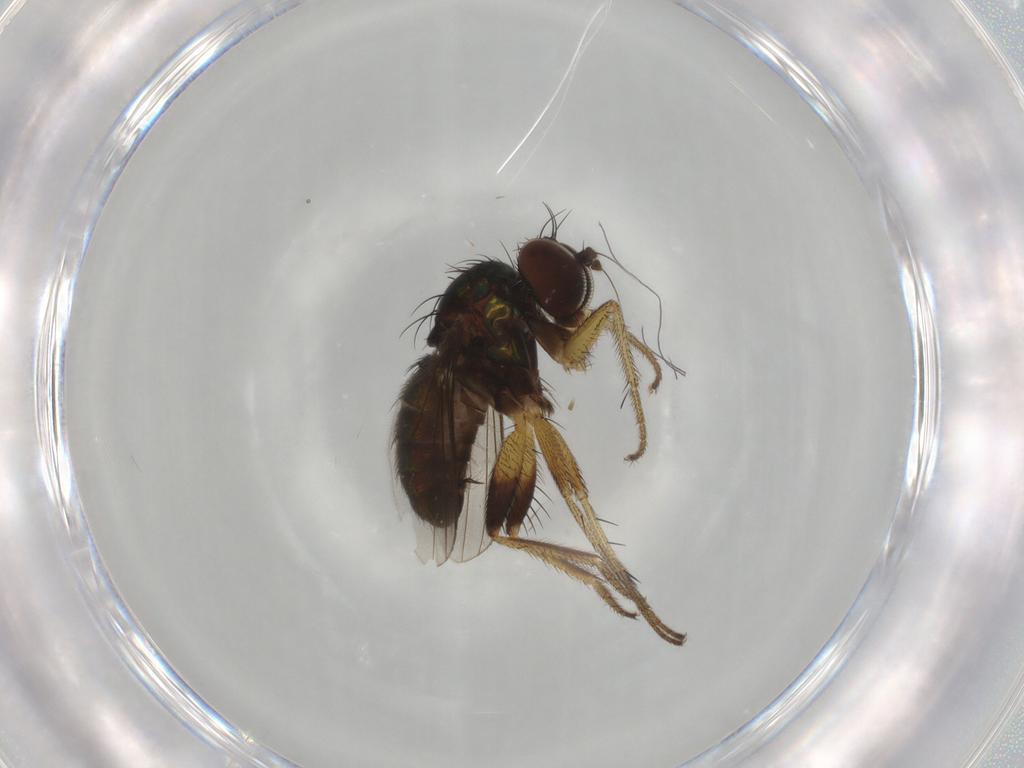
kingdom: Animalia
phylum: Arthropoda
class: Insecta
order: Diptera
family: Dolichopodidae
